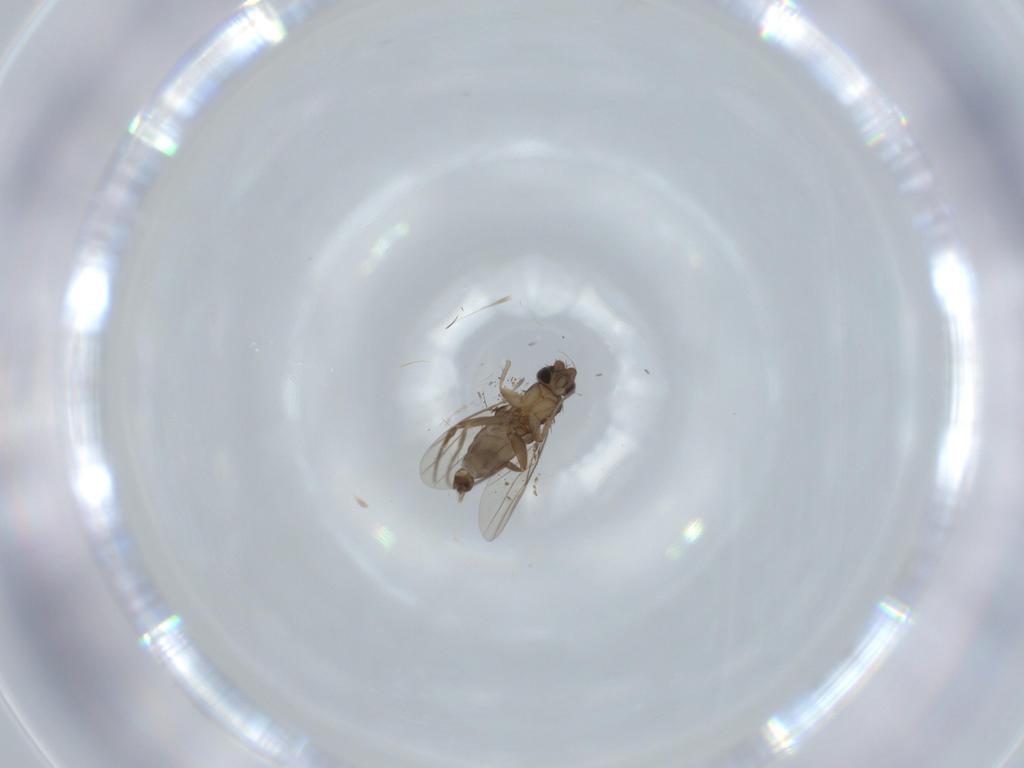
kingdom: Animalia
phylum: Arthropoda
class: Insecta
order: Diptera
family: Phoridae
